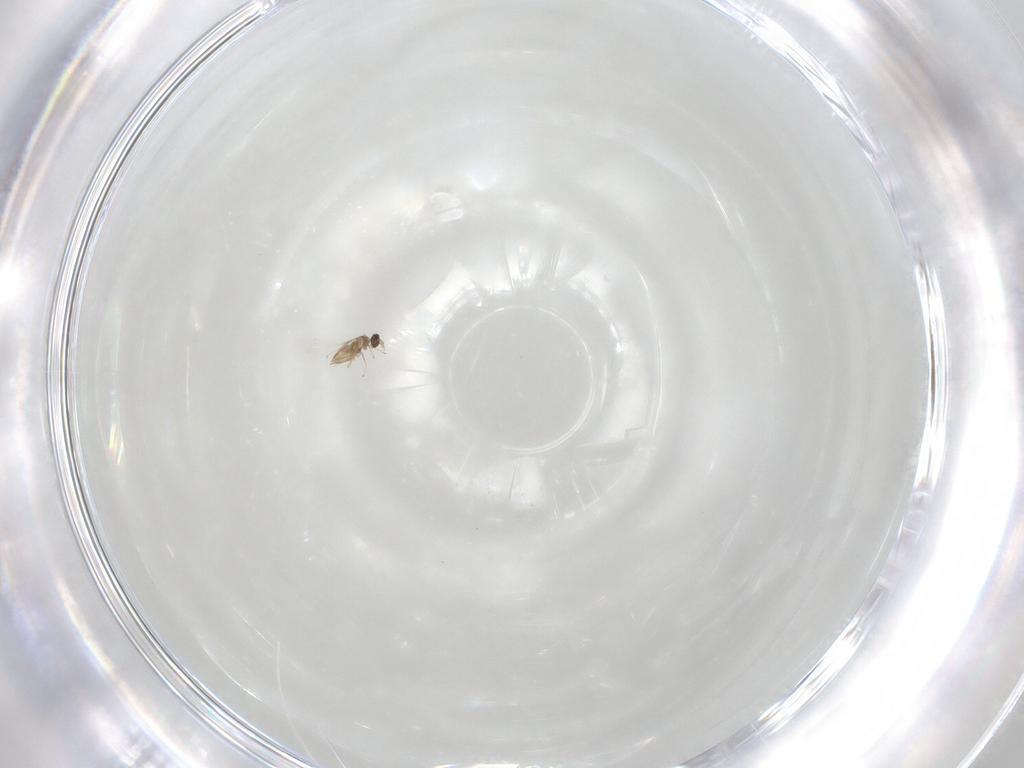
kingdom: Animalia
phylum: Arthropoda
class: Insecta
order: Hymenoptera
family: Mymaridae
